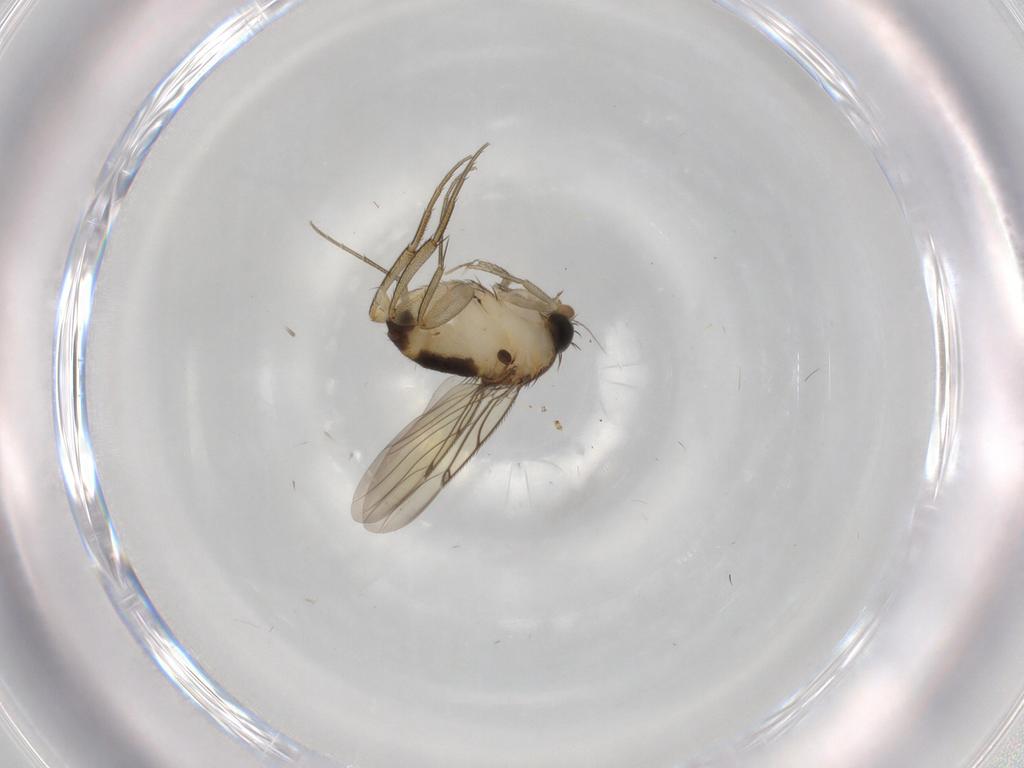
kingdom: Animalia
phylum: Arthropoda
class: Insecta
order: Diptera
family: Phoridae
